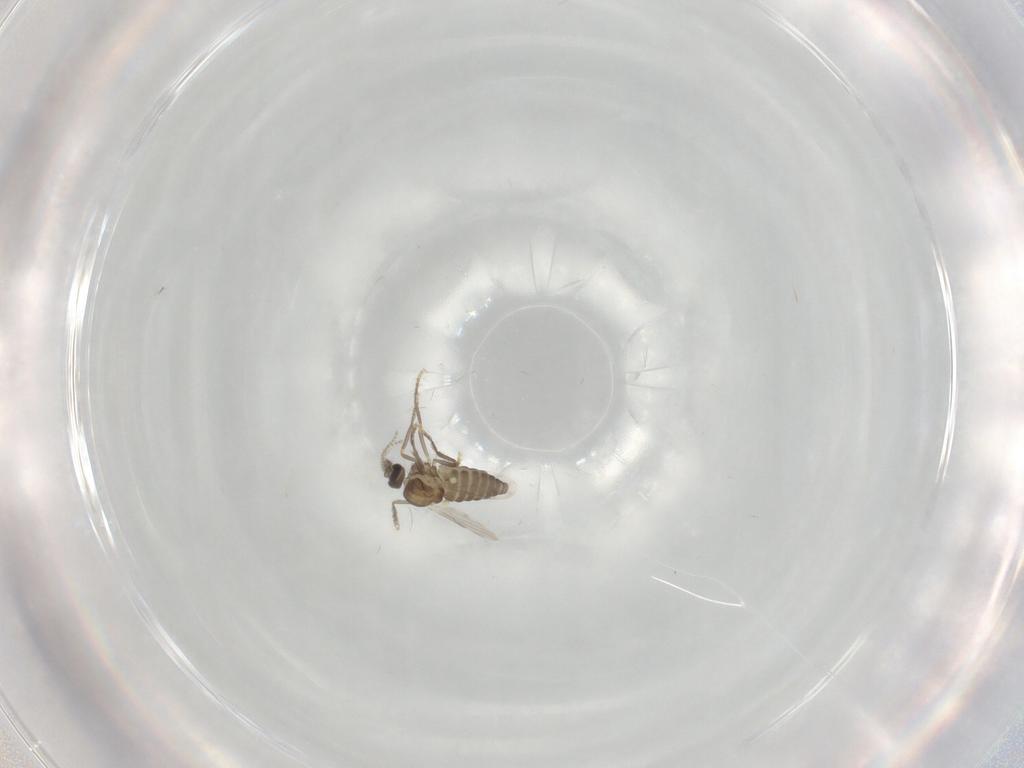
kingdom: Animalia
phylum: Arthropoda
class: Insecta
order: Diptera
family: Ceratopogonidae
